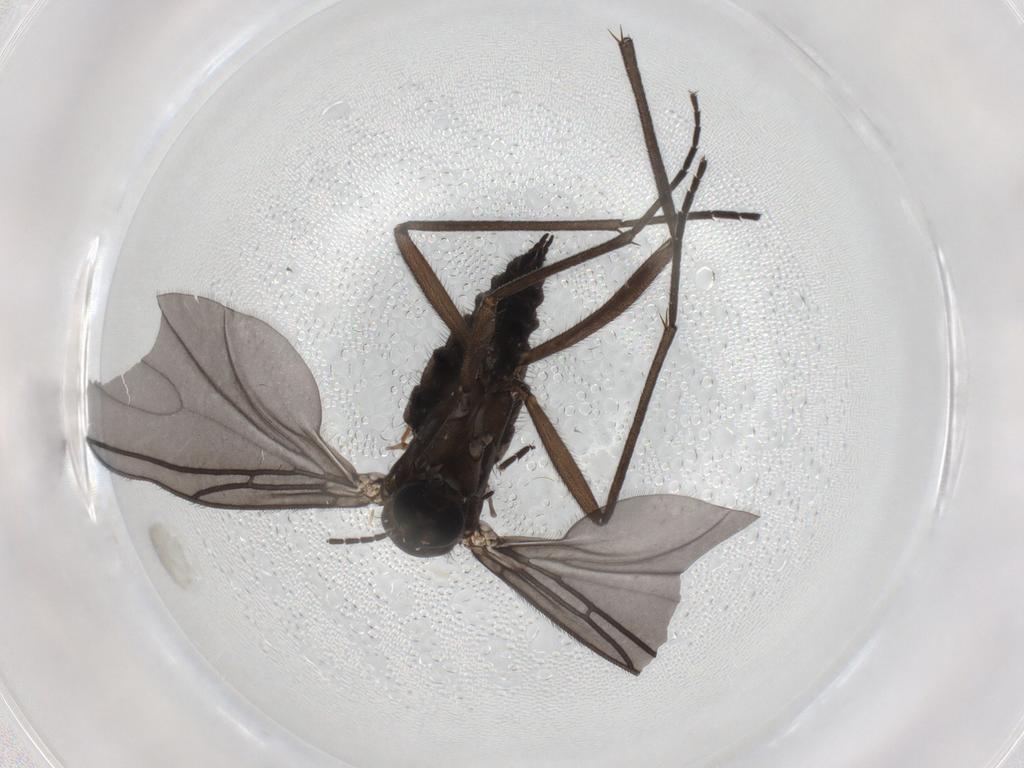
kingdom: Animalia
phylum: Arthropoda
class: Insecta
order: Diptera
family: Sciaridae
